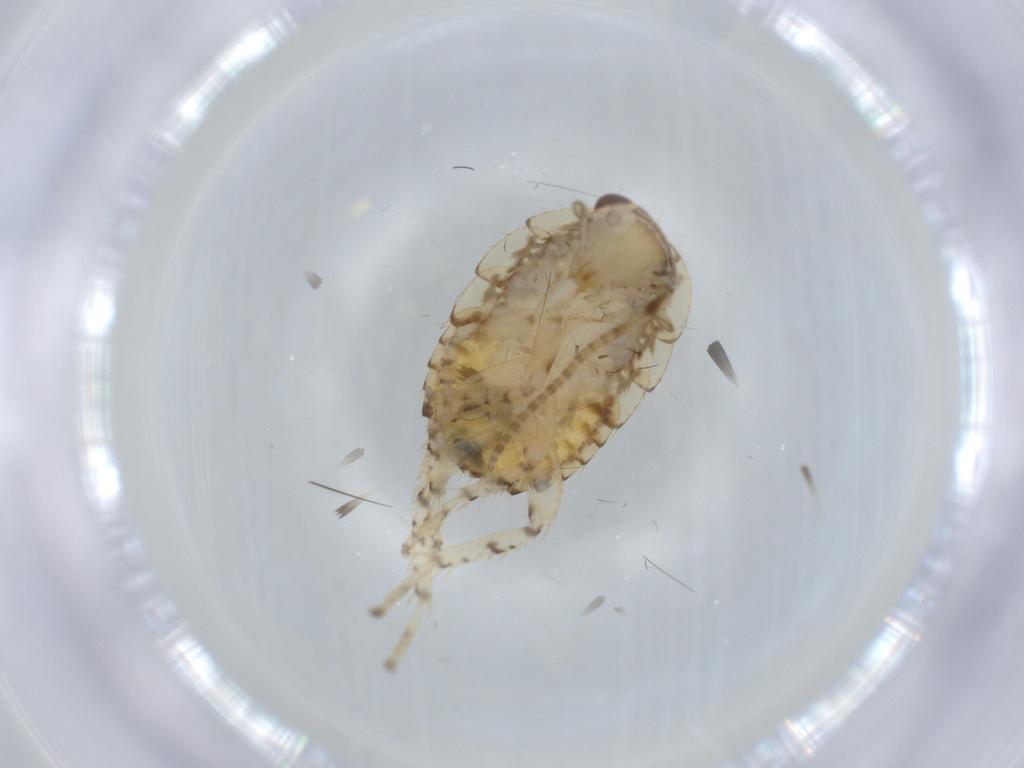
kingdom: Animalia
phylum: Arthropoda
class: Insecta
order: Blattodea
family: Ectobiidae
